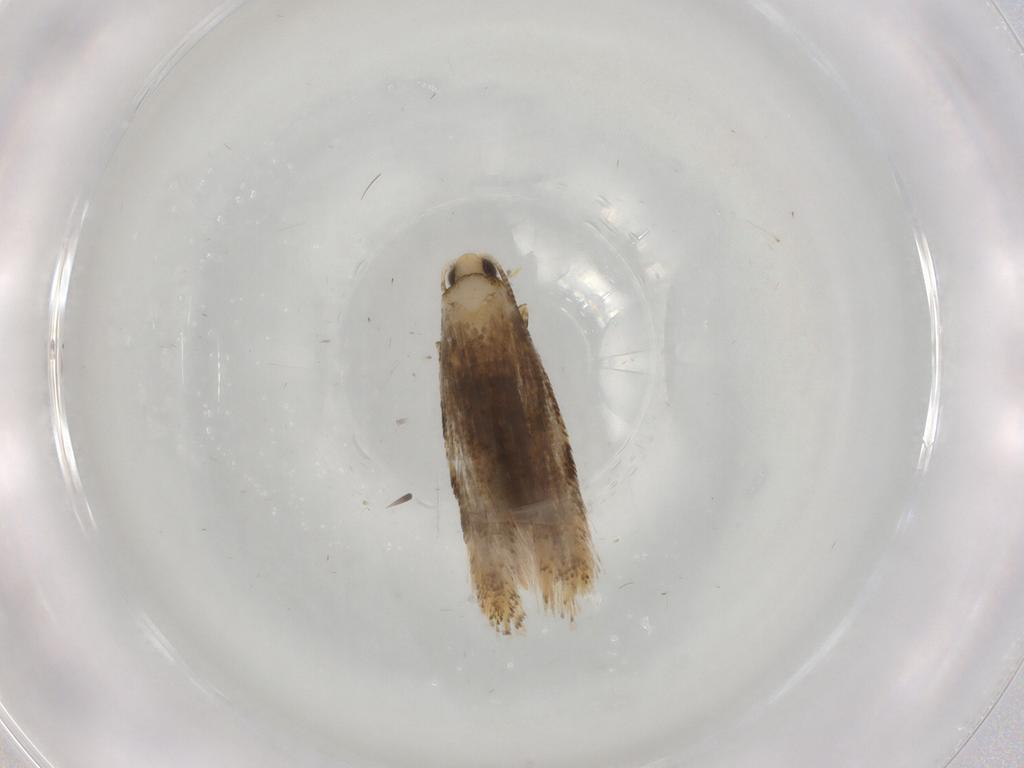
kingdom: Animalia
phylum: Arthropoda
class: Insecta
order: Lepidoptera
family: Tineidae
